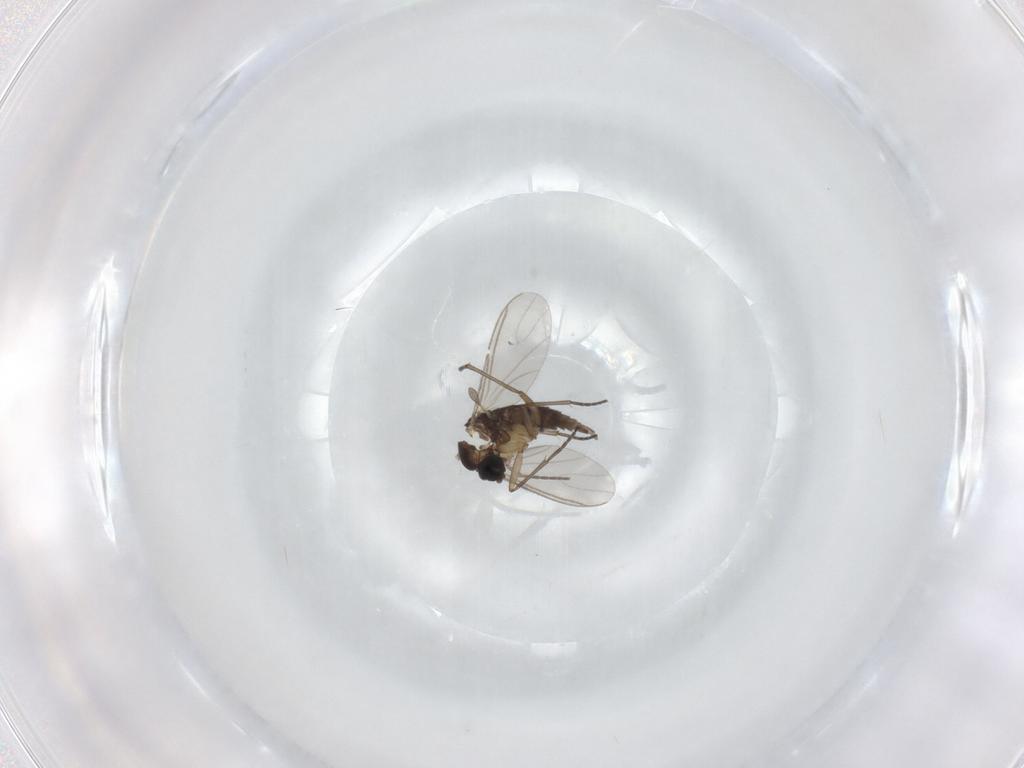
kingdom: Animalia
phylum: Arthropoda
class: Insecta
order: Diptera
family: Sciaridae
